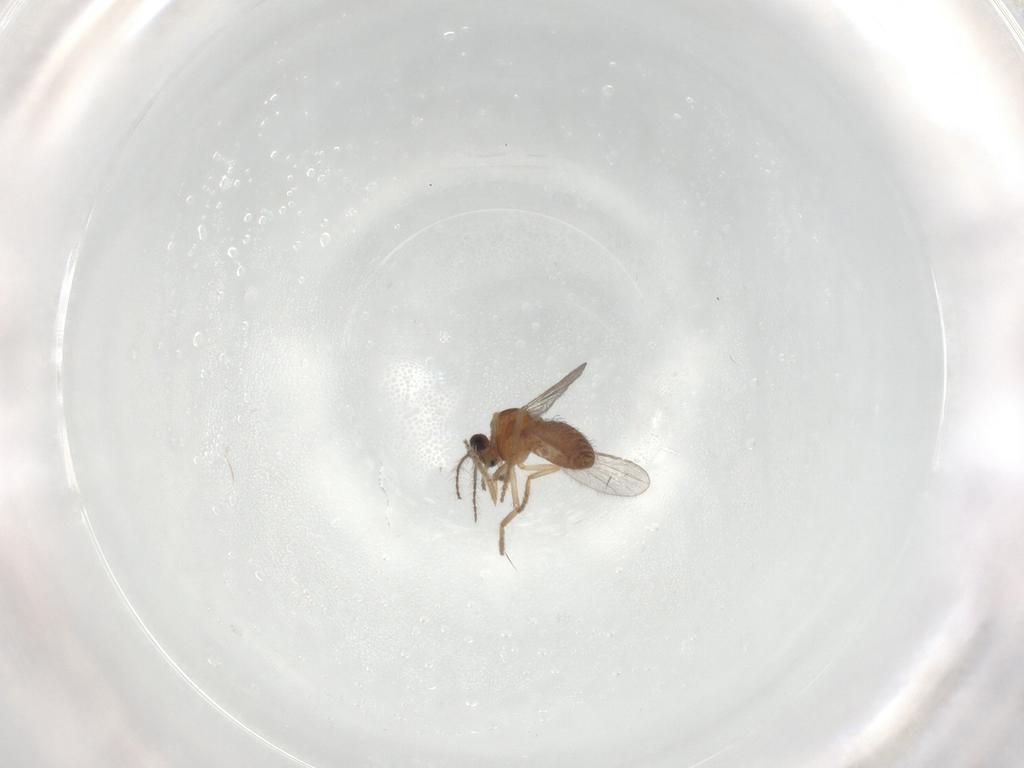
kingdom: Animalia
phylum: Arthropoda
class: Insecta
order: Diptera
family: Ceratopogonidae
